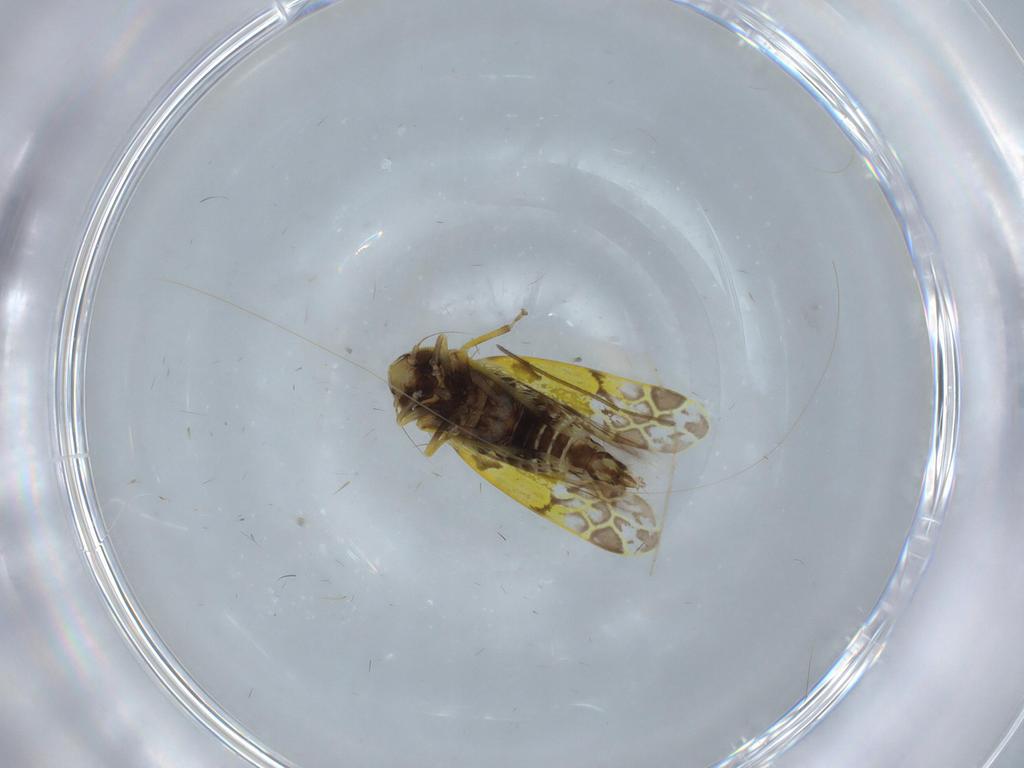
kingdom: Animalia
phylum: Arthropoda
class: Insecta
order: Hemiptera
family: Cicadellidae
